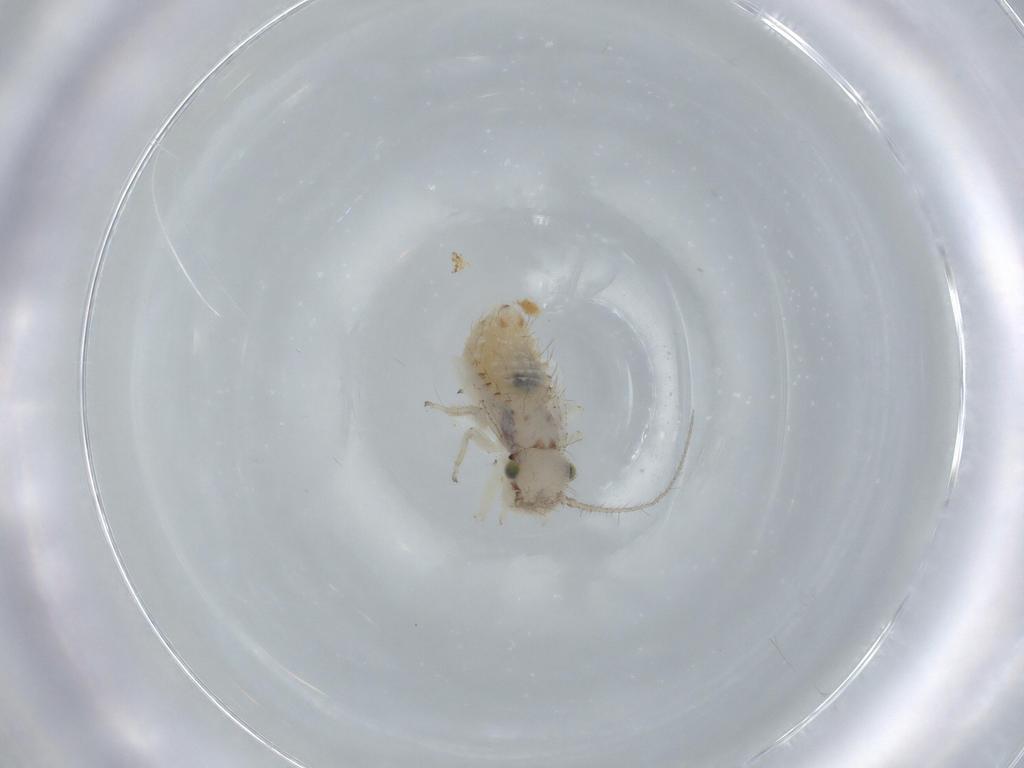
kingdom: Animalia
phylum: Arthropoda
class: Insecta
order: Psocodea
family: Pseudocaeciliidae
